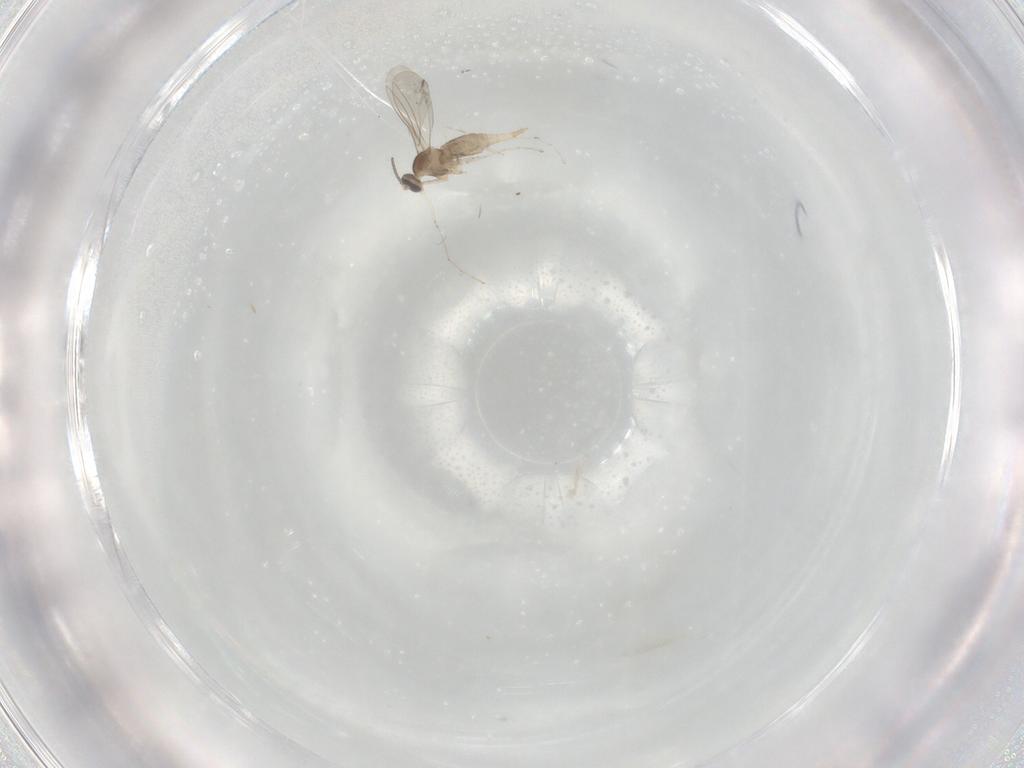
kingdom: Animalia
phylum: Arthropoda
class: Insecta
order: Diptera
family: Cecidomyiidae
